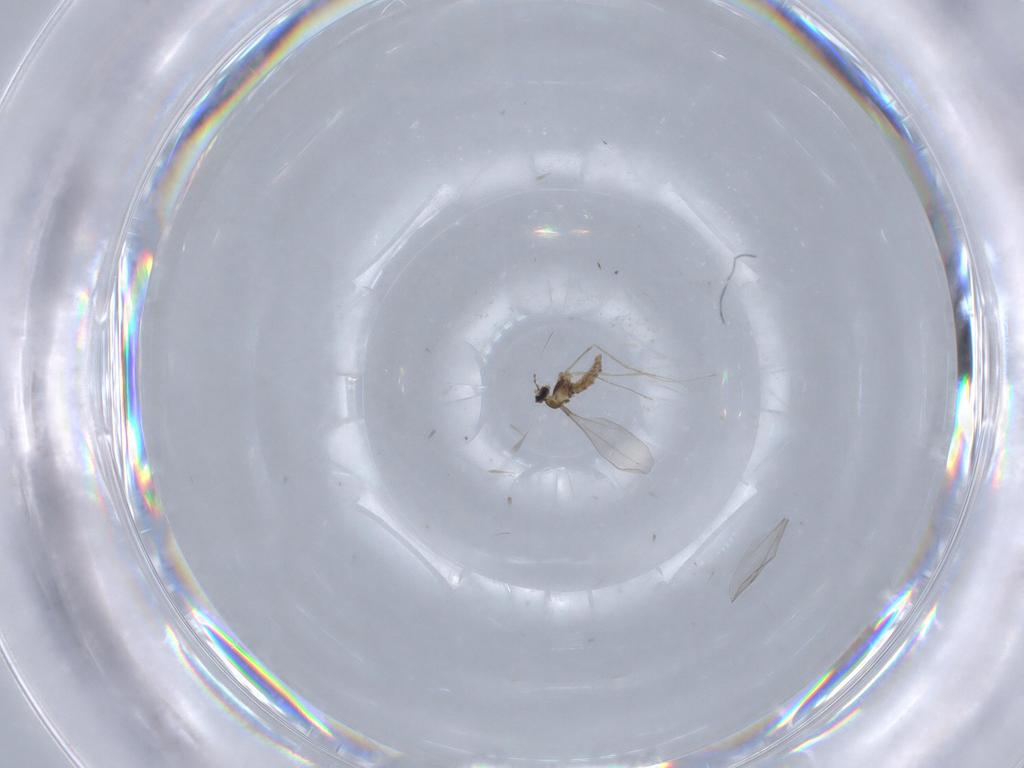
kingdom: Animalia
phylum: Arthropoda
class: Insecta
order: Diptera
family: Cecidomyiidae
